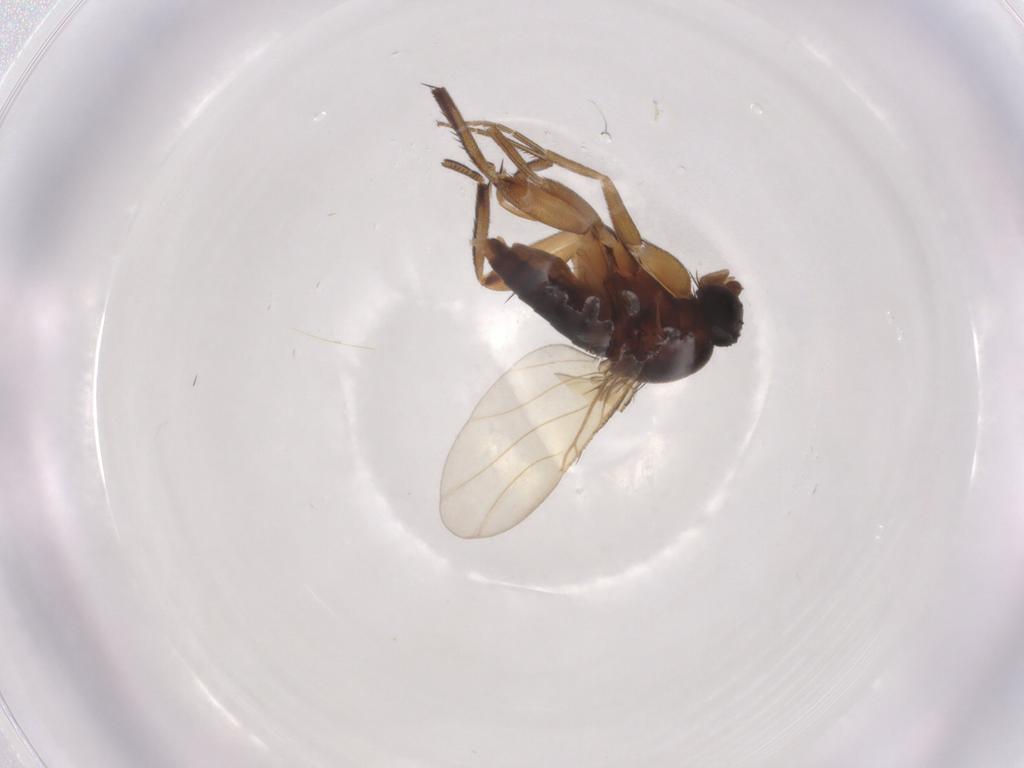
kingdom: Animalia
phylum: Arthropoda
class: Insecta
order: Diptera
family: Phoridae
